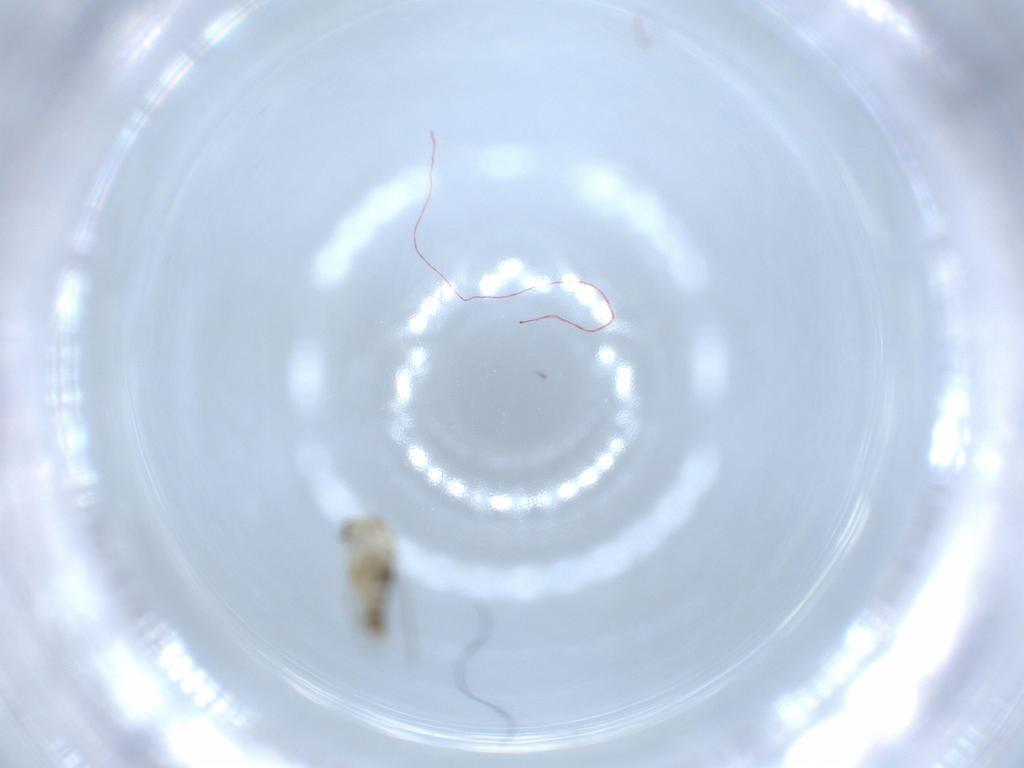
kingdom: Animalia
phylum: Arthropoda
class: Insecta
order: Diptera
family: Chironomidae
